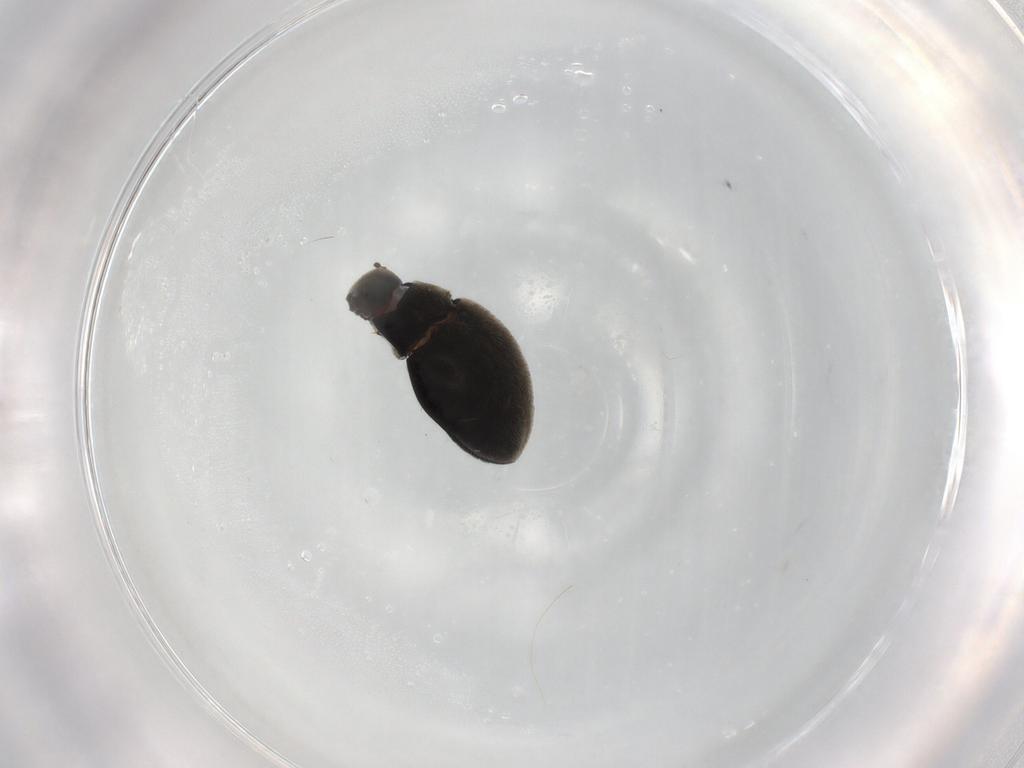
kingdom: Animalia
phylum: Arthropoda
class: Insecta
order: Coleoptera
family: Limnichidae
